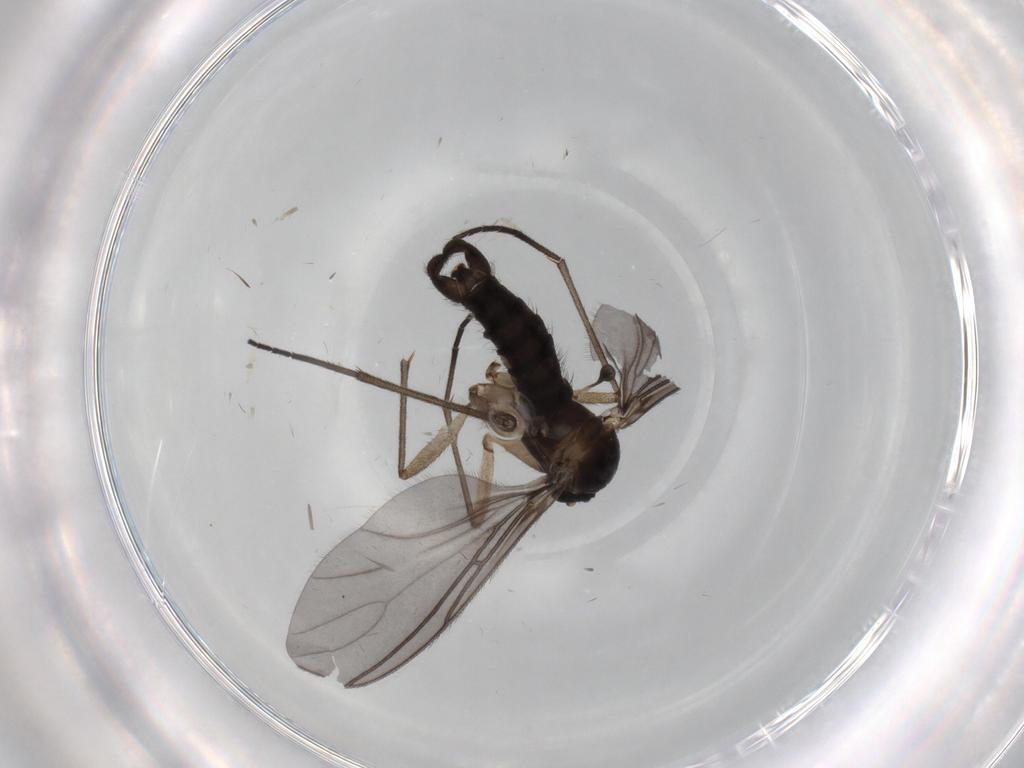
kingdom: Animalia
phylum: Arthropoda
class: Insecta
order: Diptera
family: Sciaridae
